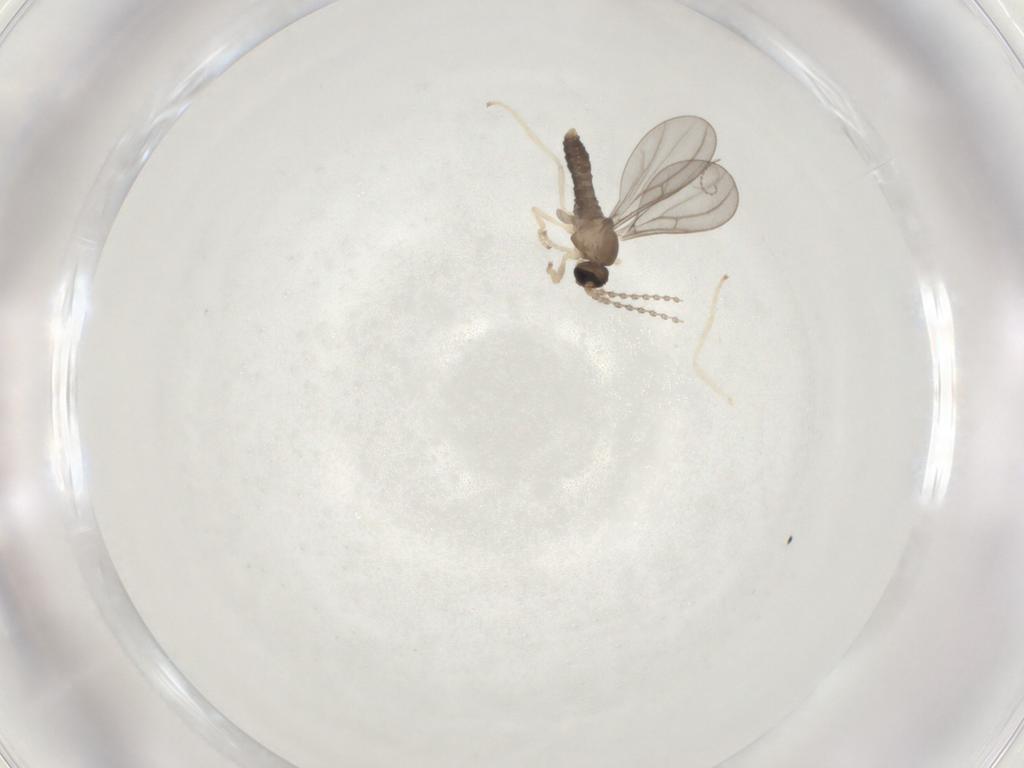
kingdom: Animalia
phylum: Arthropoda
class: Insecta
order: Diptera
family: Cecidomyiidae
